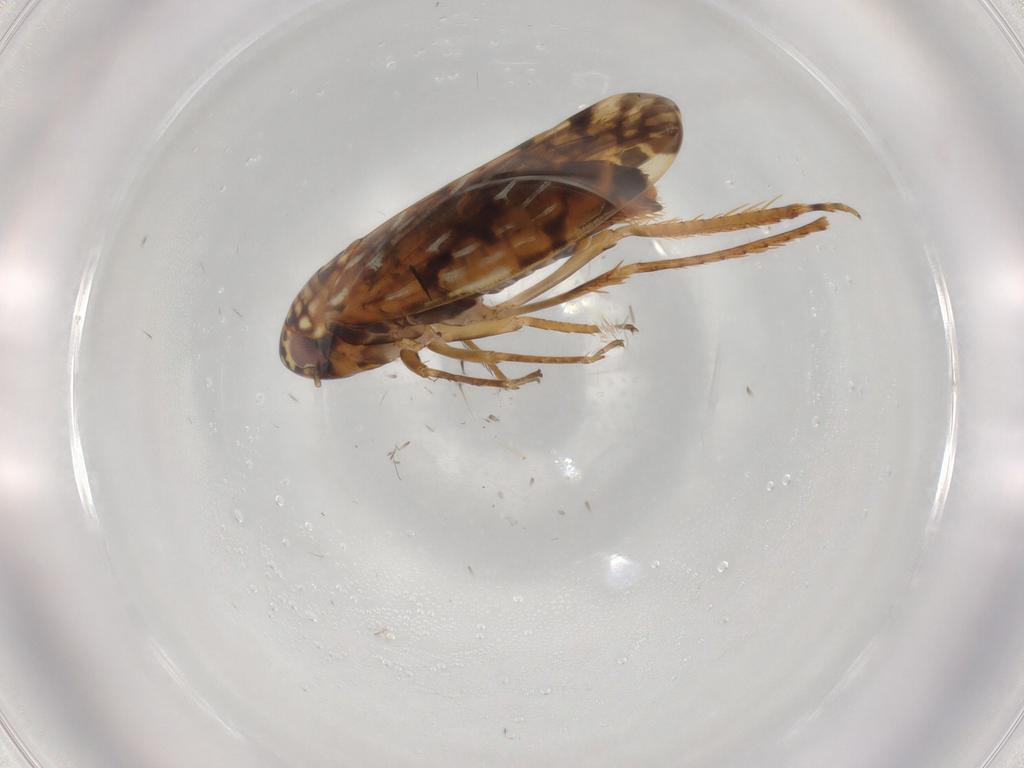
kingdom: Animalia
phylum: Arthropoda
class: Insecta
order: Hemiptera
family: Cicadellidae
